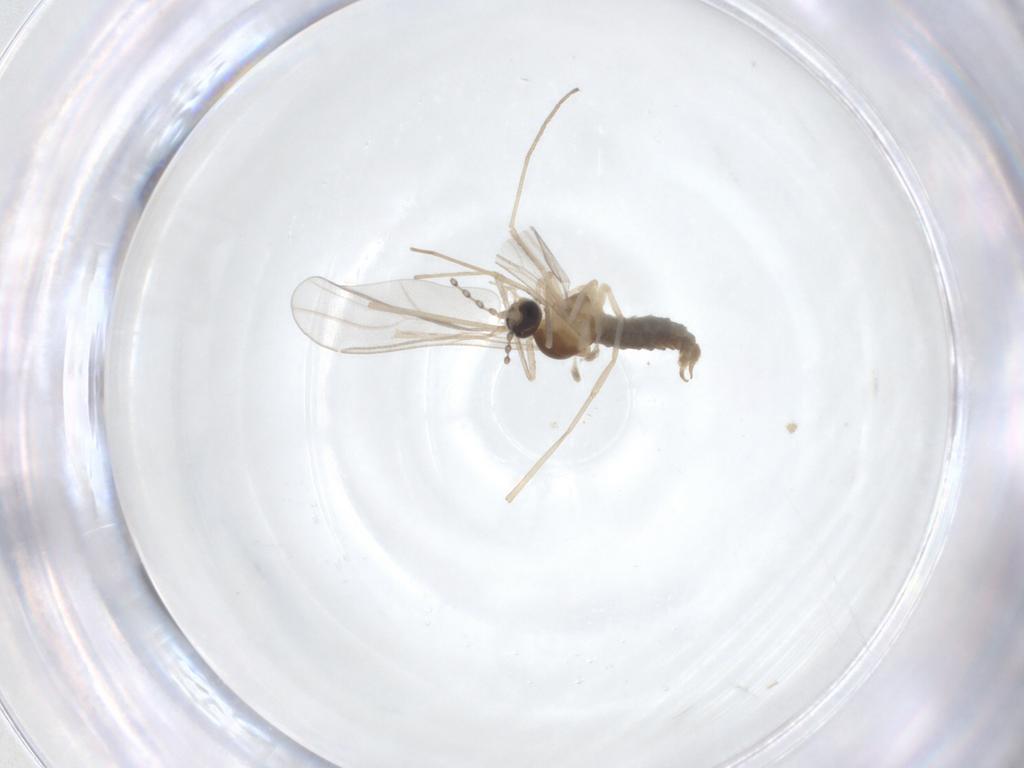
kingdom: Animalia
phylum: Arthropoda
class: Insecta
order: Diptera
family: Cecidomyiidae
